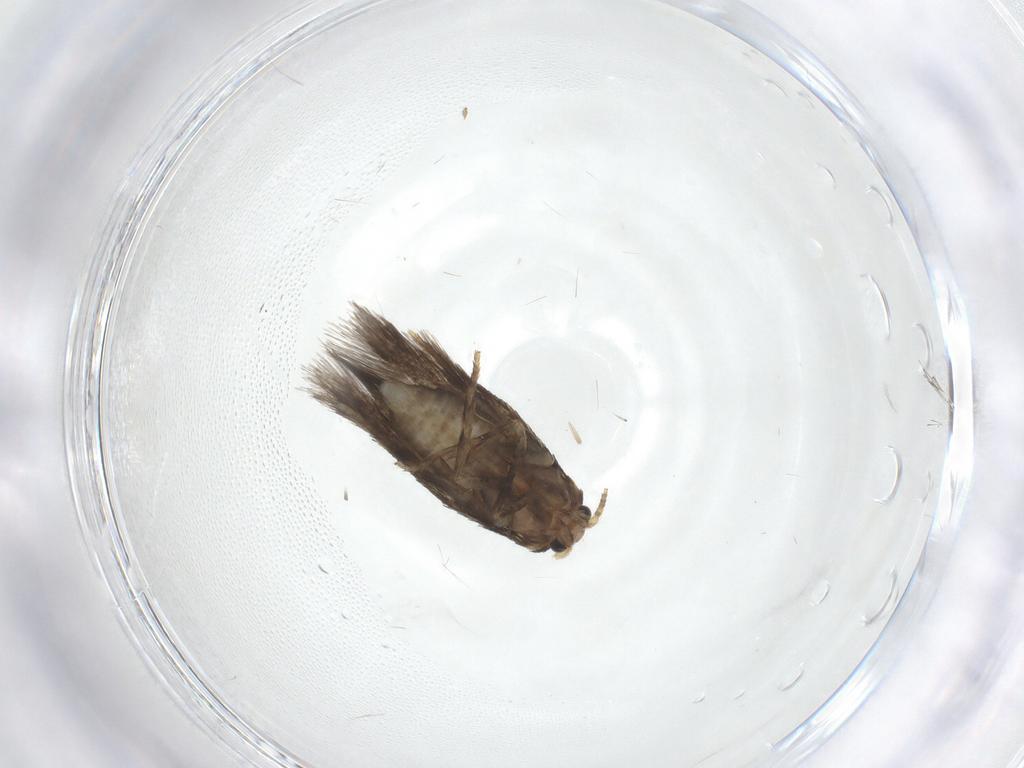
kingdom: Animalia
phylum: Arthropoda
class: Insecta
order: Lepidoptera
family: Nepticulidae
